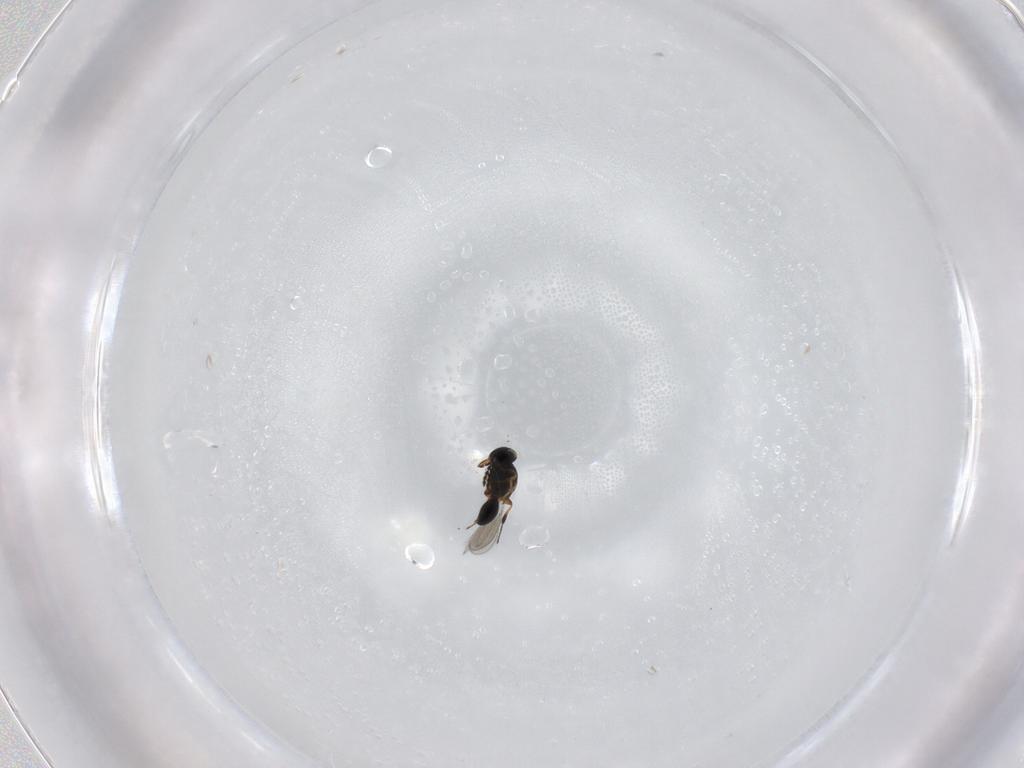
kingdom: Animalia
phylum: Arthropoda
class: Insecta
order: Hymenoptera
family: Platygastridae
